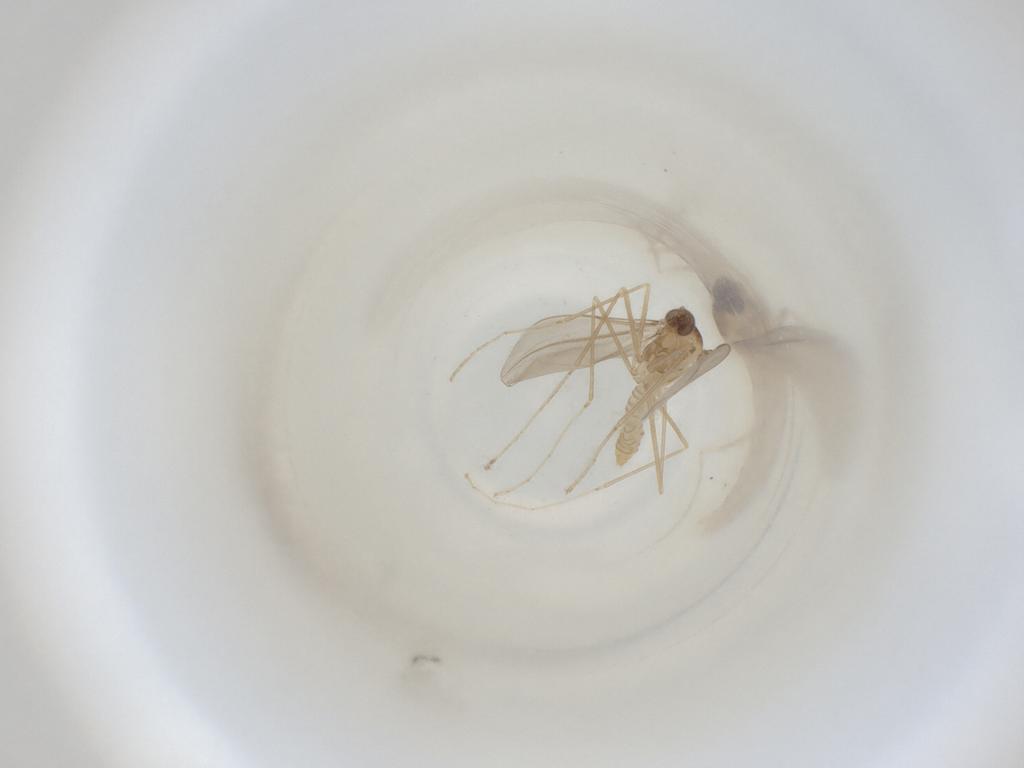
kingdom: Animalia
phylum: Arthropoda
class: Insecta
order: Diptera
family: Cecidomyiidae
